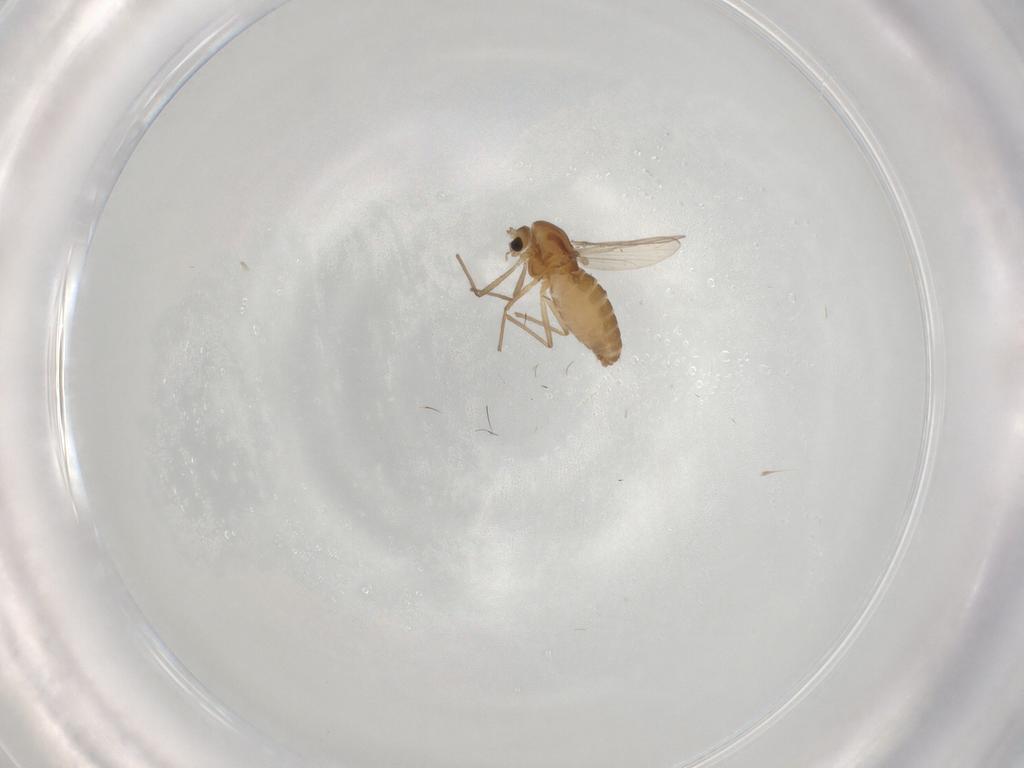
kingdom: Animalia
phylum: Arthropoda
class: Insecta
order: Diptera
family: Chironomidae
